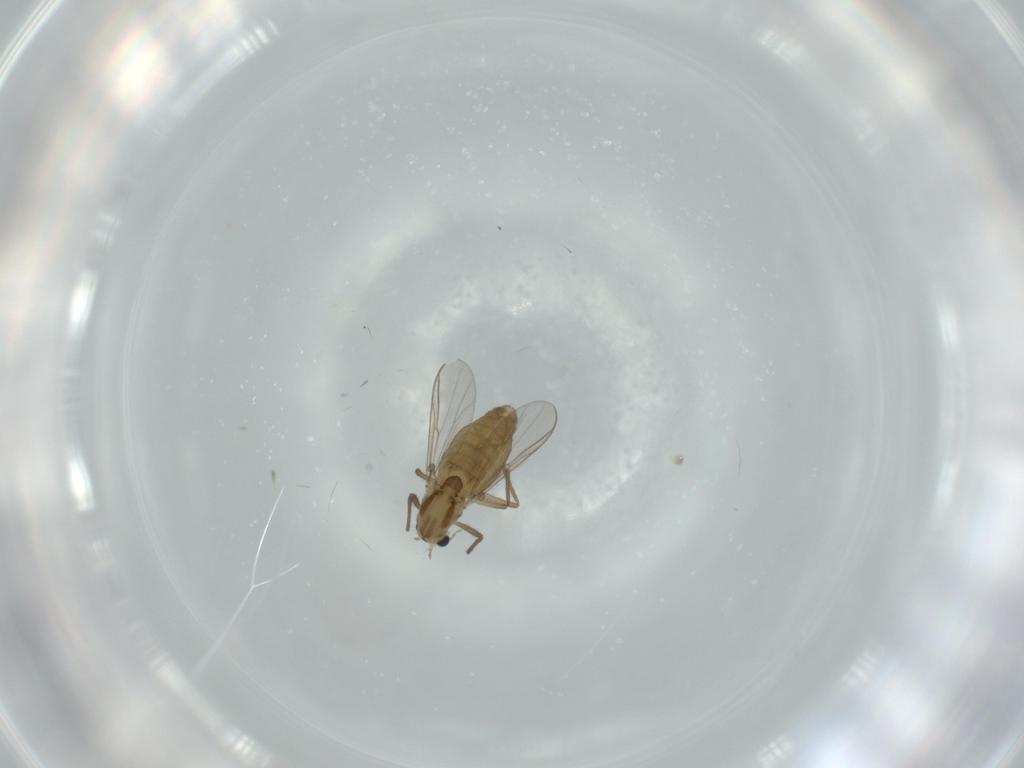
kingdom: Animalia
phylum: Arthropoda
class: Insecta
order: Diptera
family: Chironomidae
